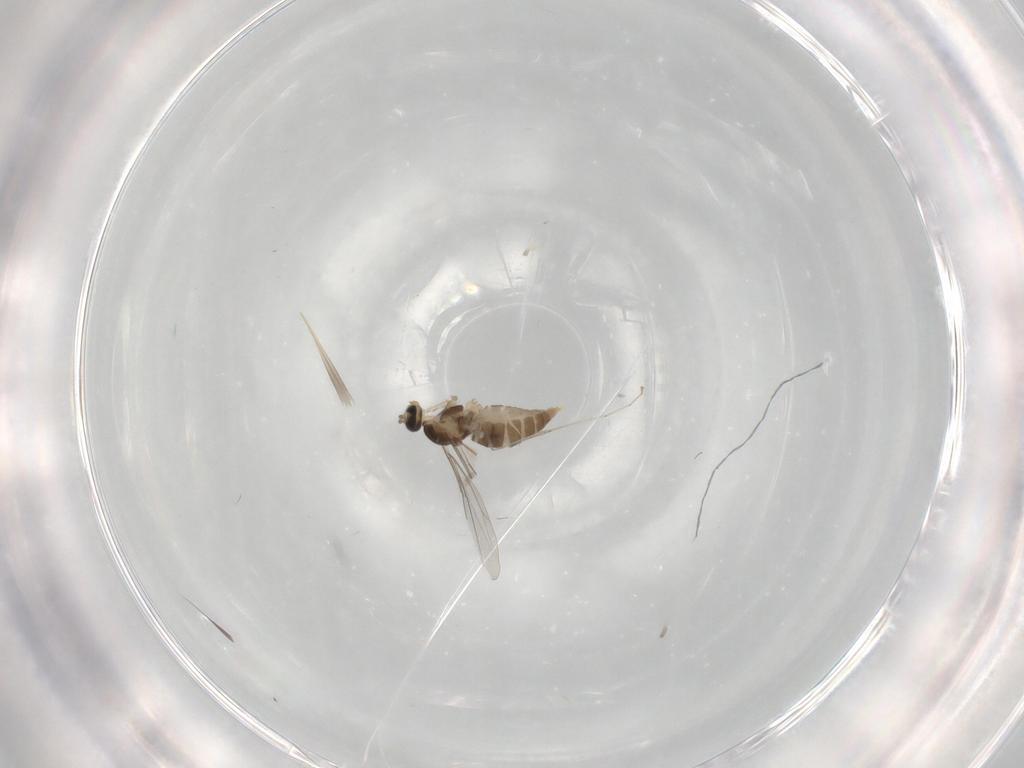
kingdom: Animalia
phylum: Arthropoda
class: Insecta
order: Diptera
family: Cecidomyiidae
